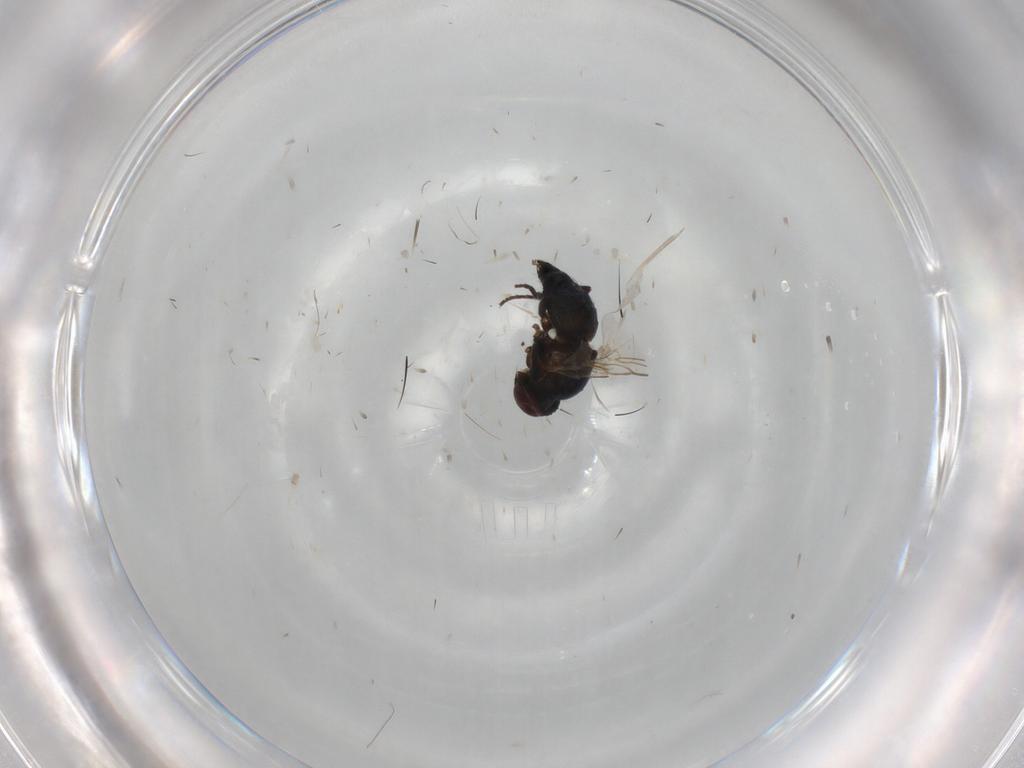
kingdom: Animalia
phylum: Arthropoda
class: Insecta
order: Diptera
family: Glossinidae
